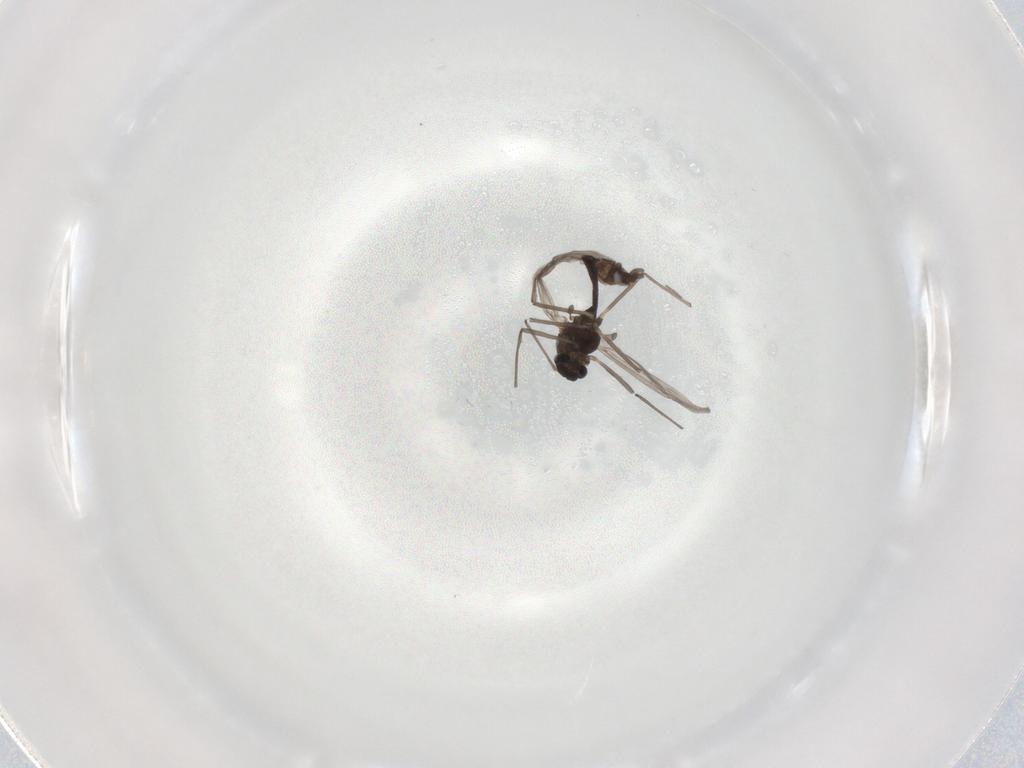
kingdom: Animalia
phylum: Arthropoda
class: Insecta
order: Diptera
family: Chironomidae
